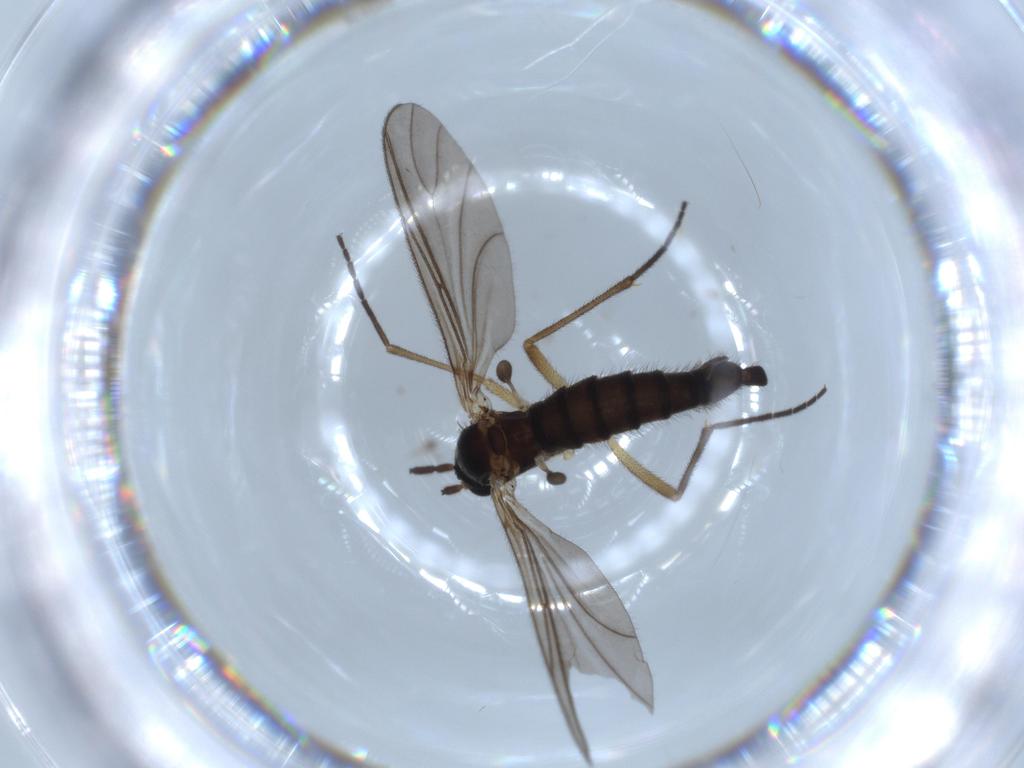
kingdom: Animalia
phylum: Arthropoda
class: Insecta
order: Diptera
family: Sciaridae
